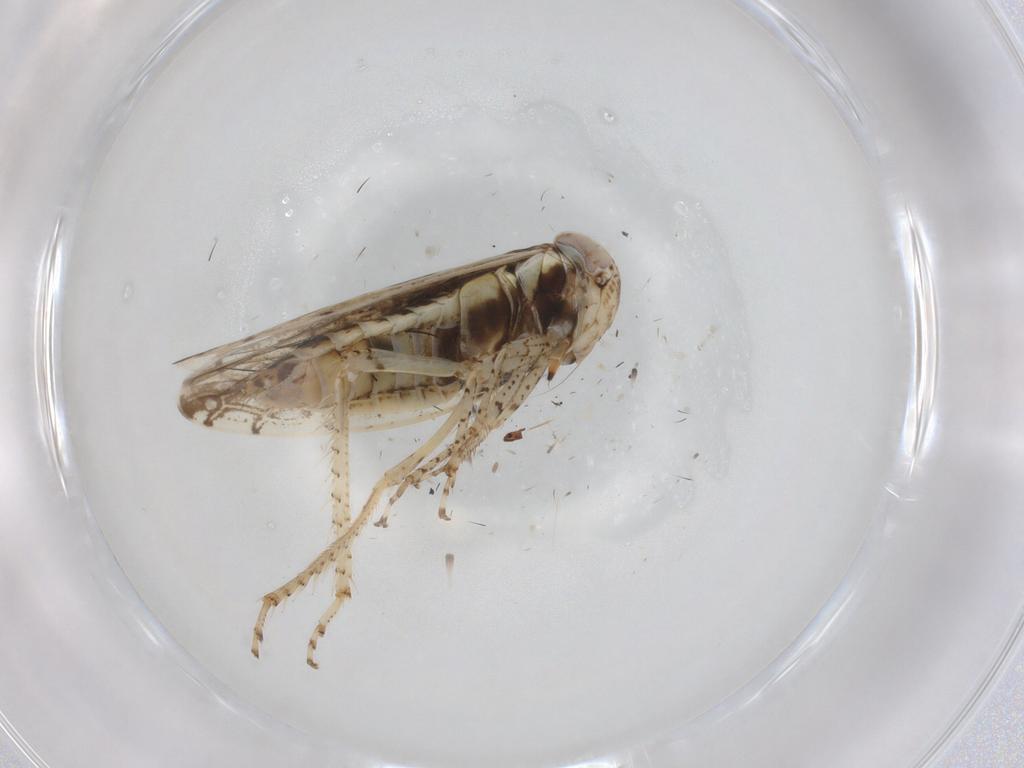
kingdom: Animalia
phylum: Arthropoda
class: Insecta
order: Hemiptera
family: Cicadellidae
